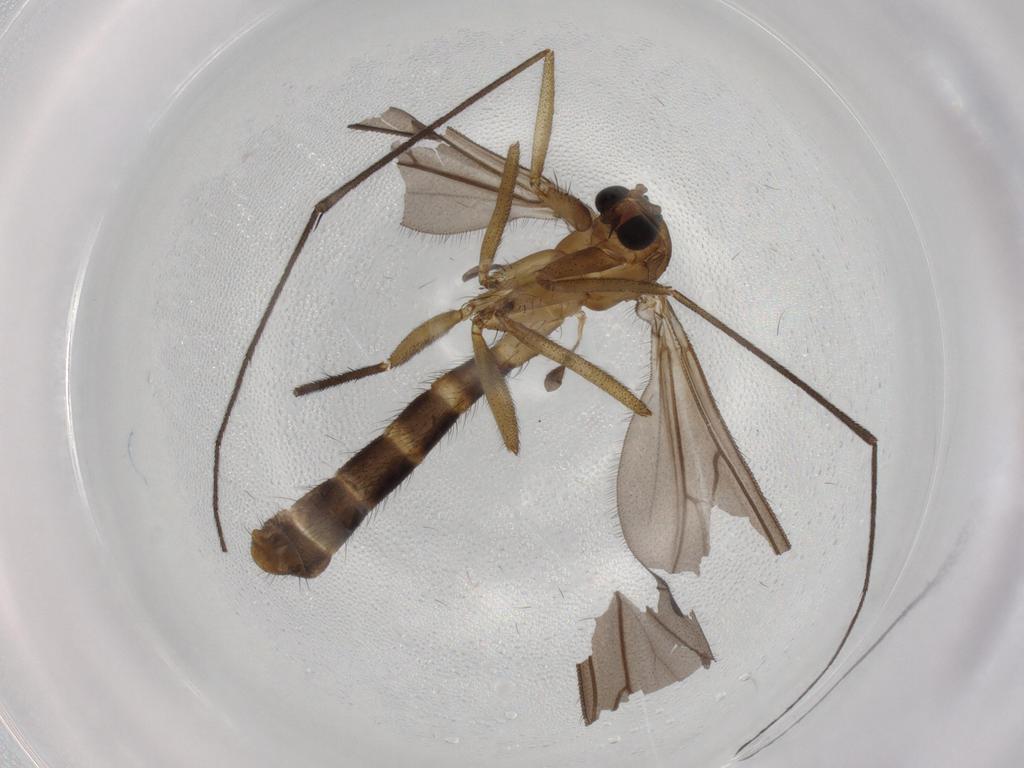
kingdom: Animalia
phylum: Arthropoda
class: Insecta
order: Diptera
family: Ditomyiidae
